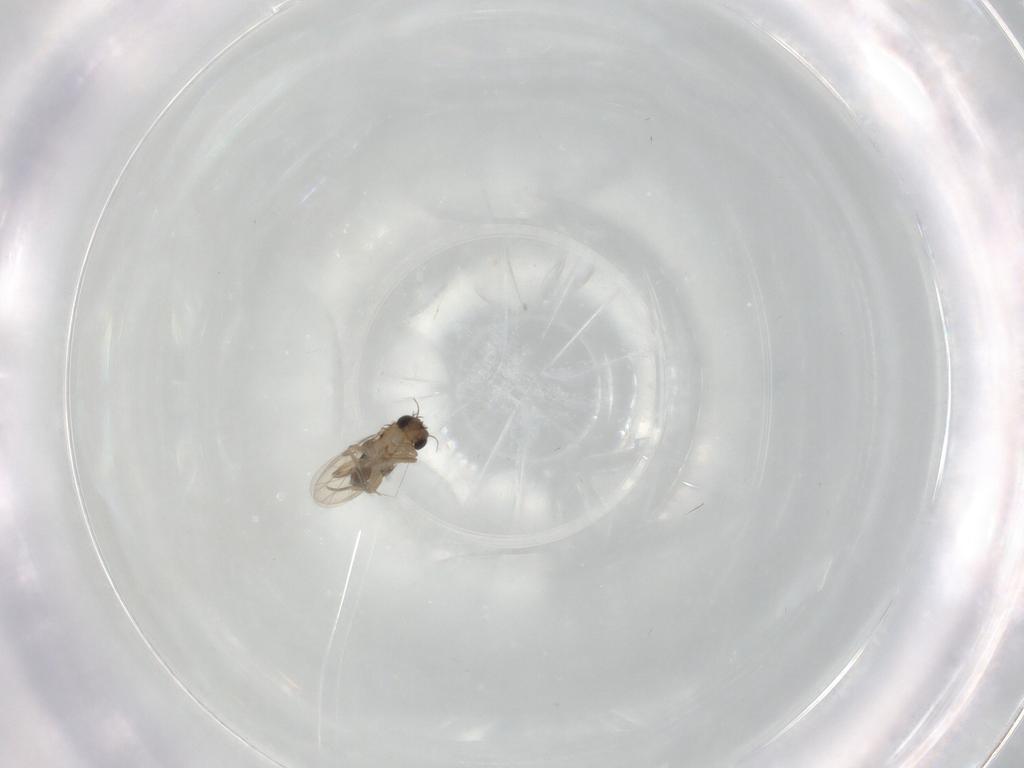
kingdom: Animalia
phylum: Arthropoda
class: Insecta
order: Diptera
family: Phoridae
